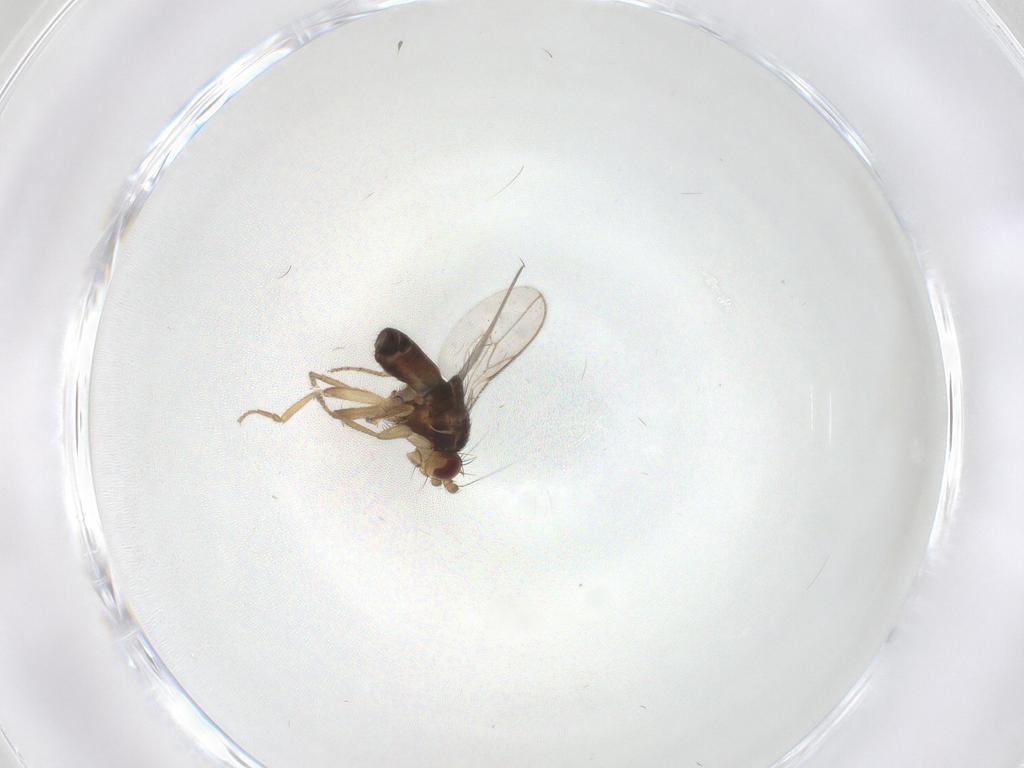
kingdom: Animalia
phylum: Arthropoda
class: Insecta
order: Diptera
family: Sphaeroceridae
